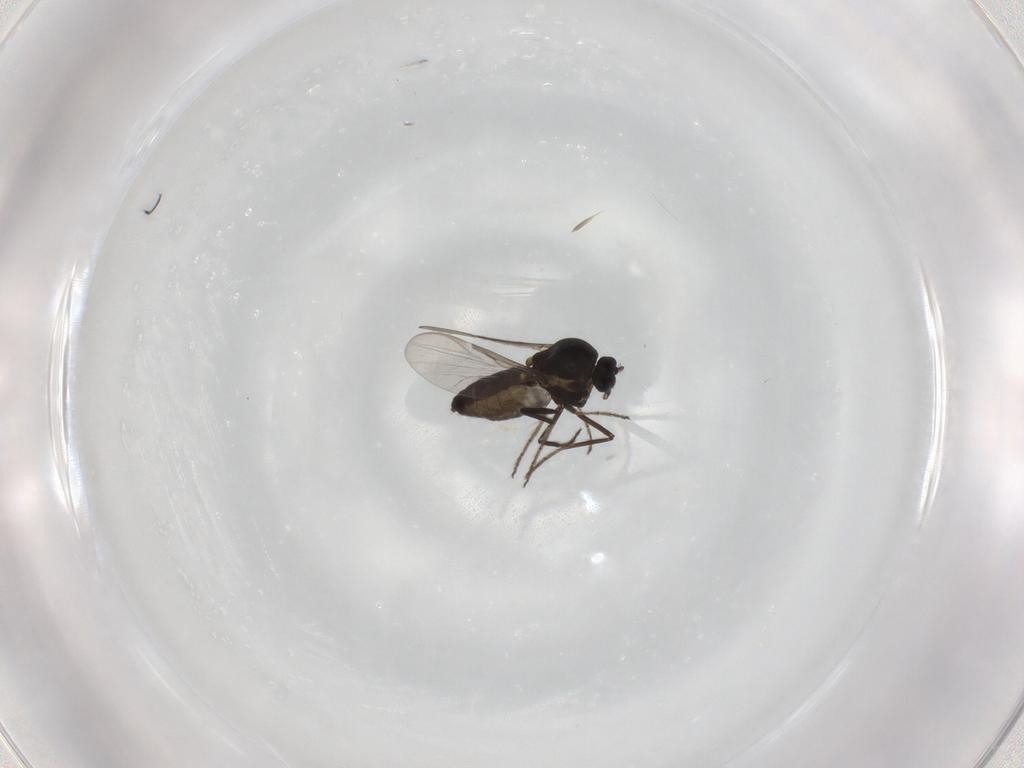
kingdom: Animalia
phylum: Arthropoda
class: Insecta
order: Diptera
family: Ceratopogonidae
